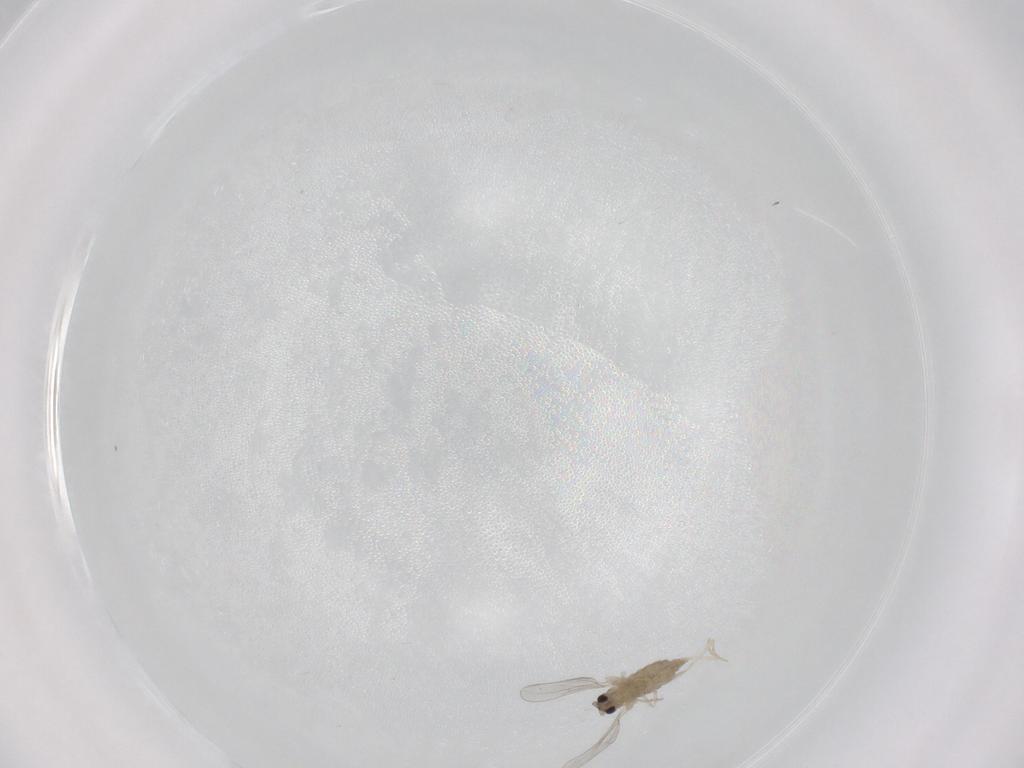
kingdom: Animalia
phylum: Arthropoda
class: Insecta
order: Diptera
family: Cecidomyiidae
